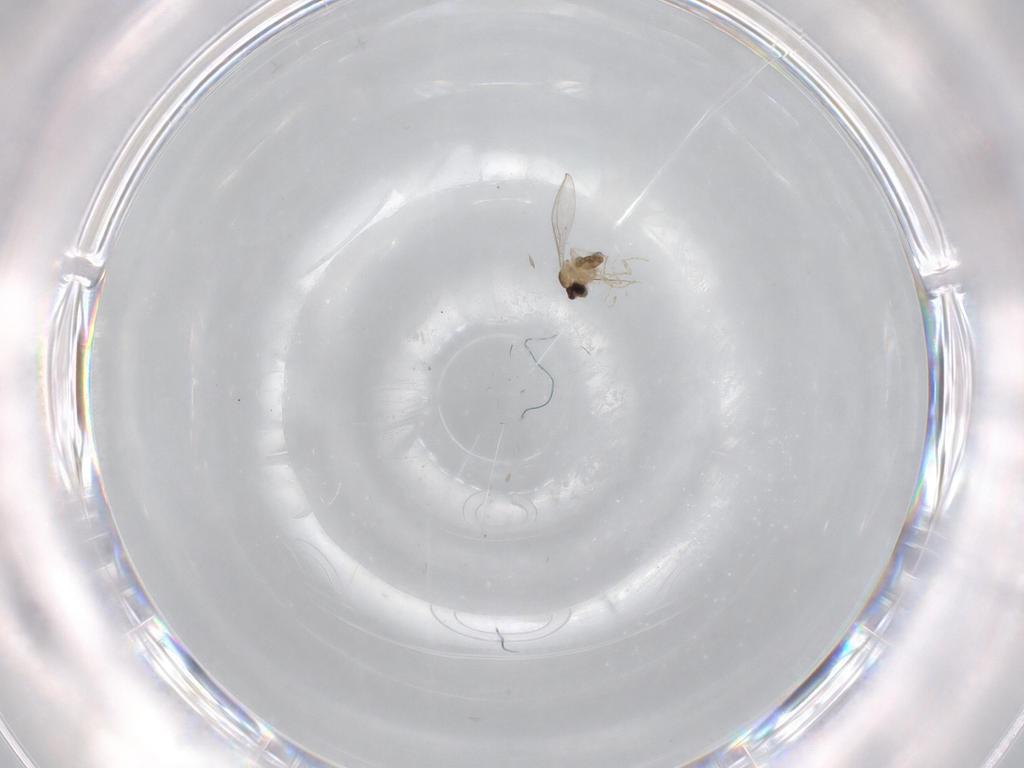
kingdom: Animalia
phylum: Arthropoda
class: Insecta
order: Diptera
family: Cecidomyiidae
